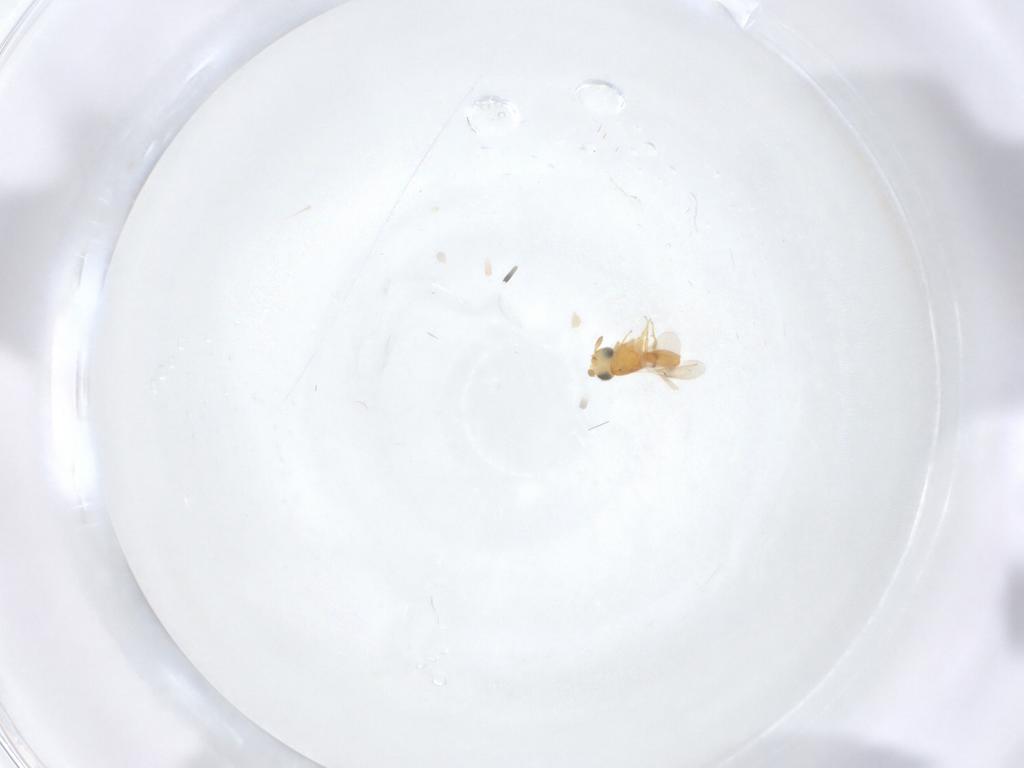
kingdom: Animalia
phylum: Arthropoda
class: Insecta
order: Hymenoptera
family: Scelionidae
